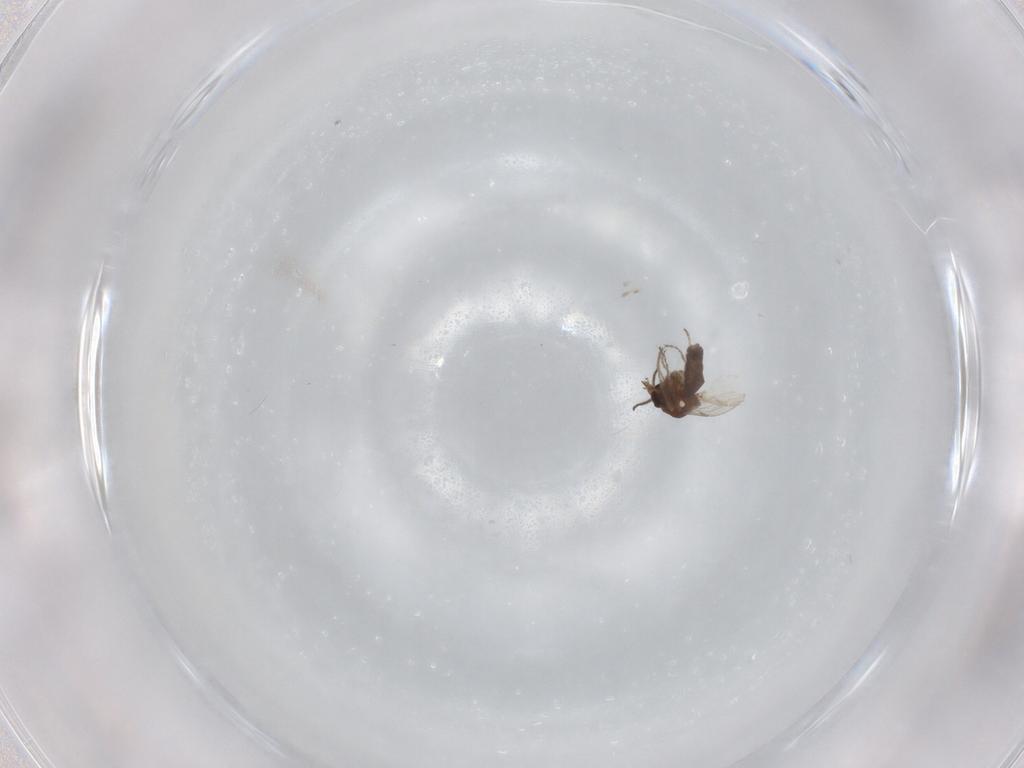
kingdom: Animalia
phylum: Arthropoda
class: Insecta
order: Diptera
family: Ceratopogonidae
